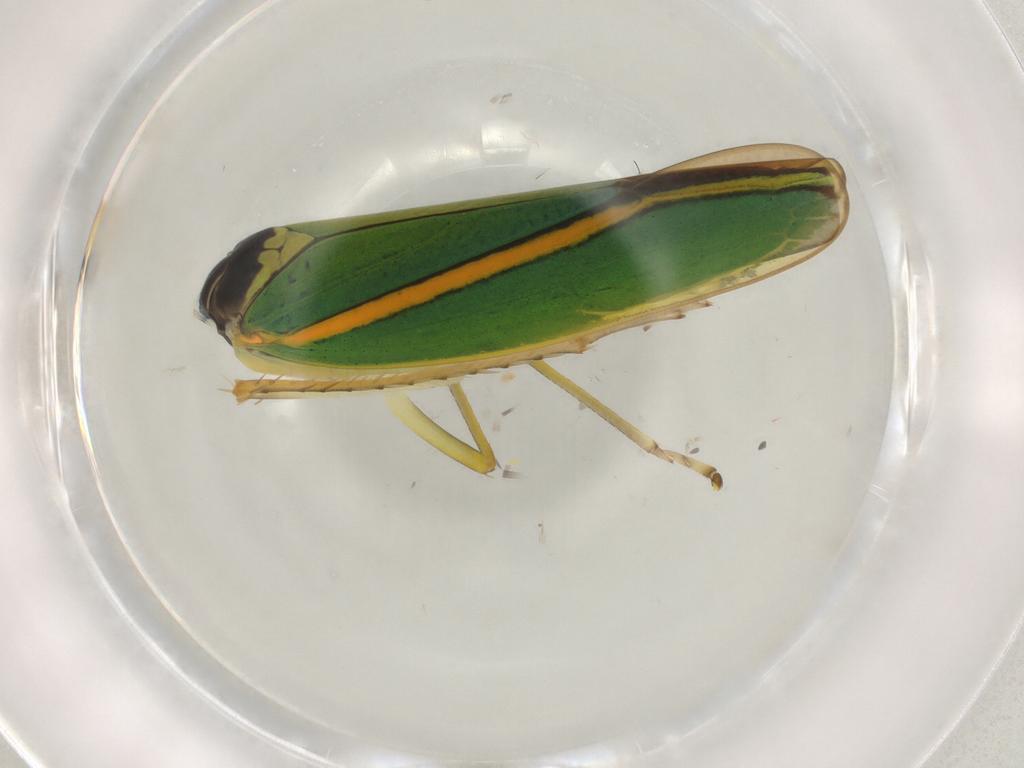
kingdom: Animalia
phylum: Arthropoda
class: Insecta
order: Hemiptera
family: Cicadellidae
